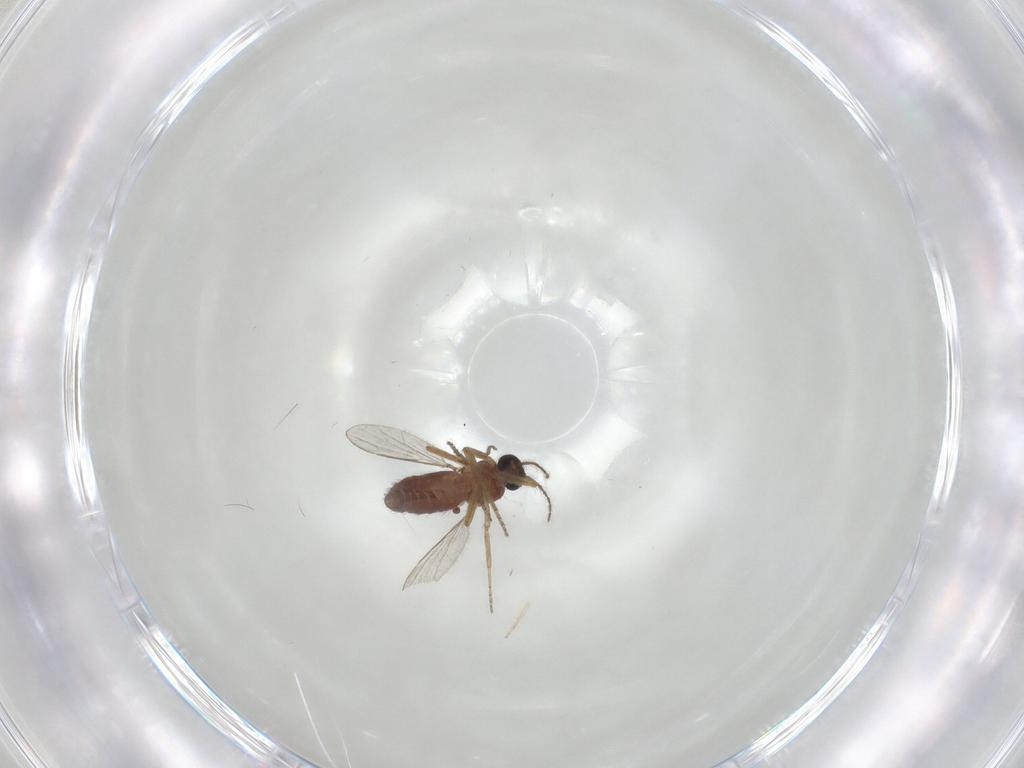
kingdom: Animalia
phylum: Arthropoda
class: Insecta
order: Diptera
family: Ceratopogonidae
